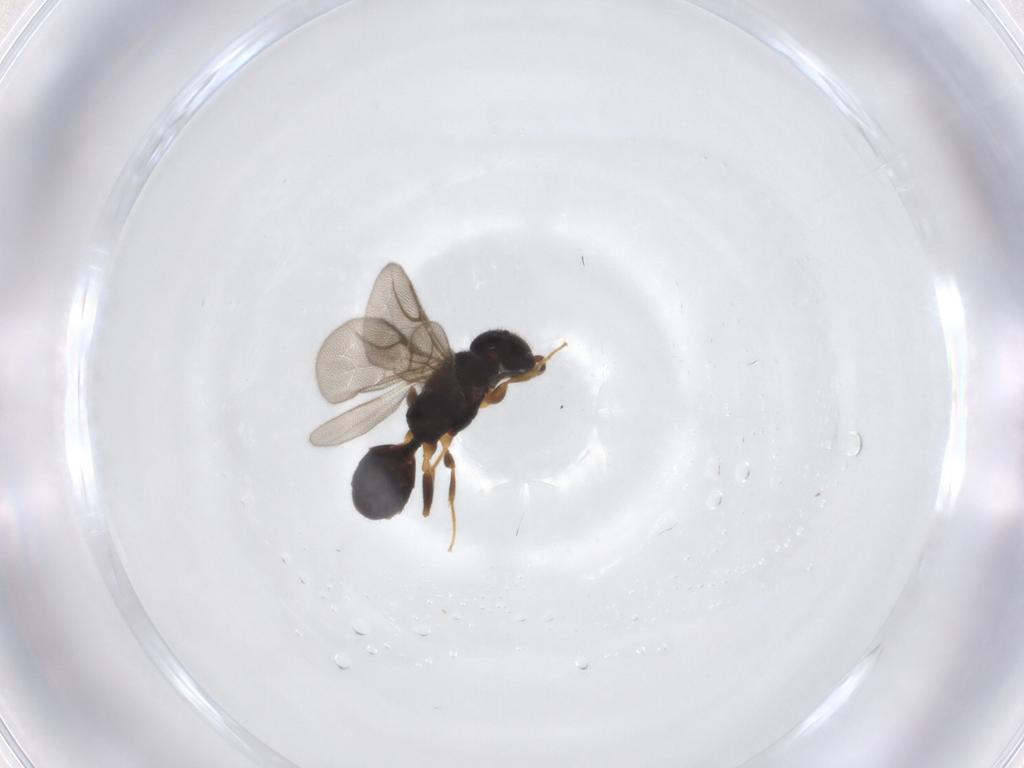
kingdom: Animalia
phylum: Arthropoda
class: Insecta
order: Hymenoptera
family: Bethylidae
